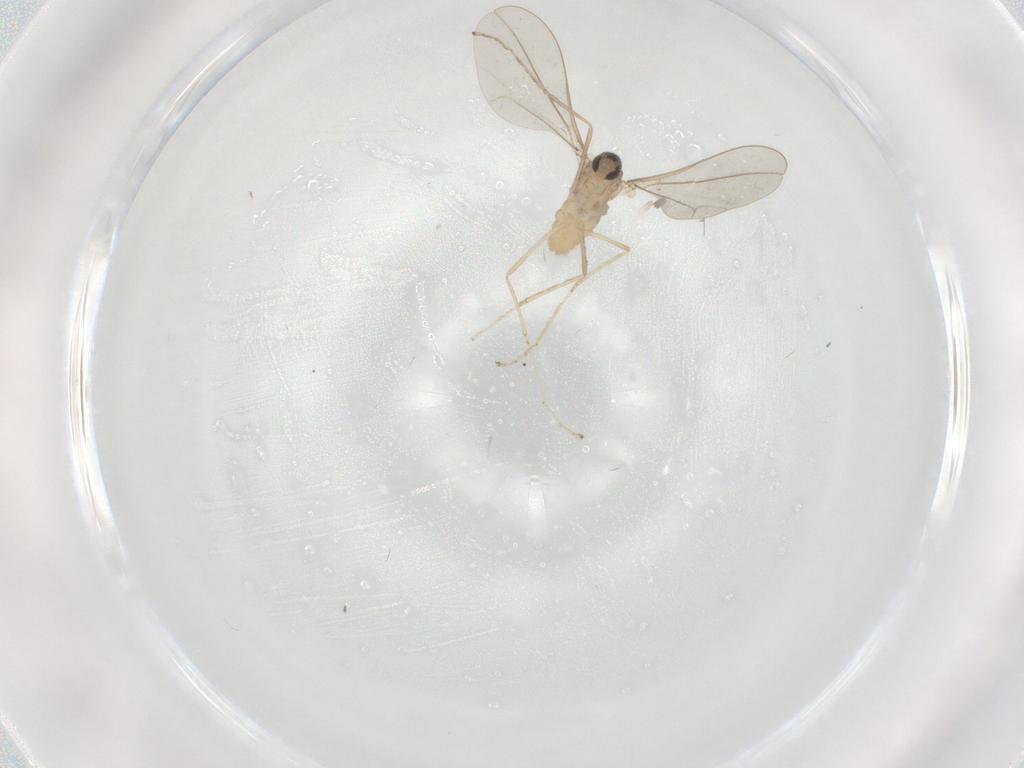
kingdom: Animalia
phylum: Arthropoda
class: Insecta
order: Diptera
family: Cecidomyiidae
